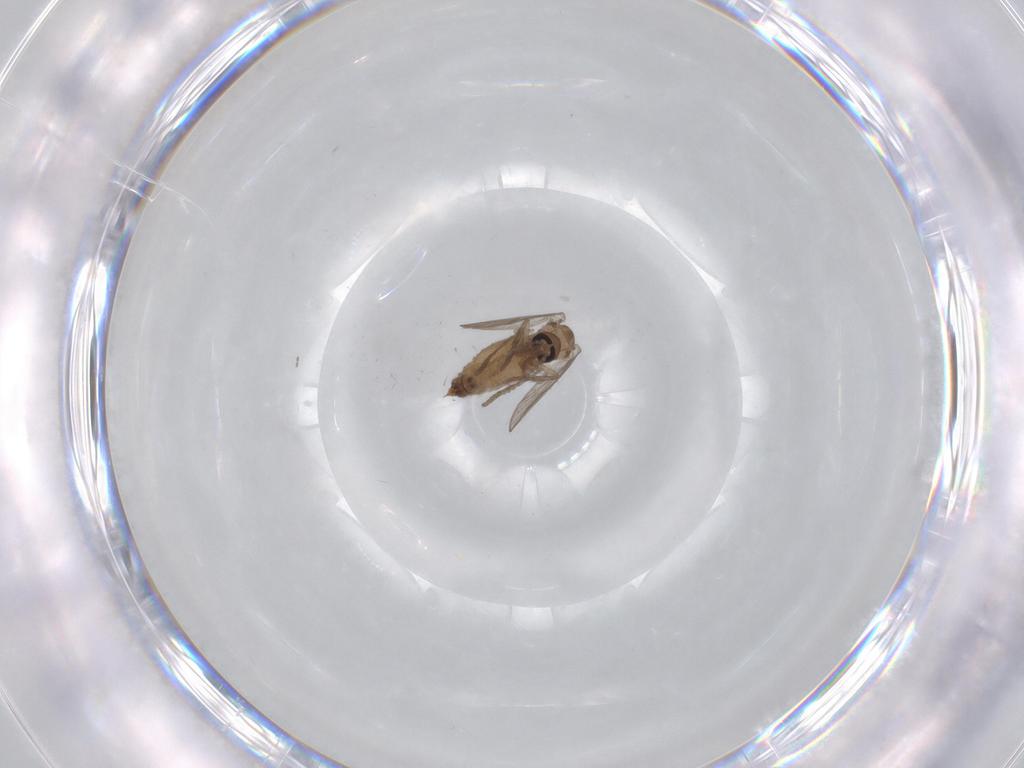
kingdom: Animalia
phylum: Arthropoda
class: Insecta
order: Diptera
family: Psychodidae
